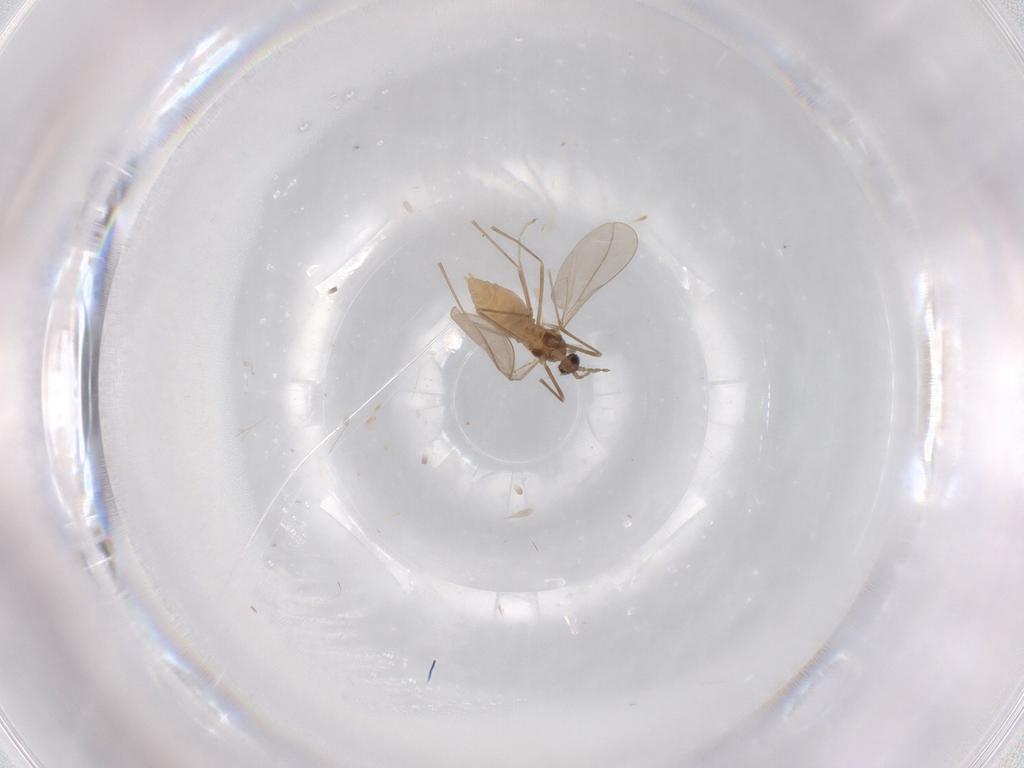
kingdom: Animalia
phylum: Arthropoda
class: Insecta
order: Diptera
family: Cecidomyiidae
